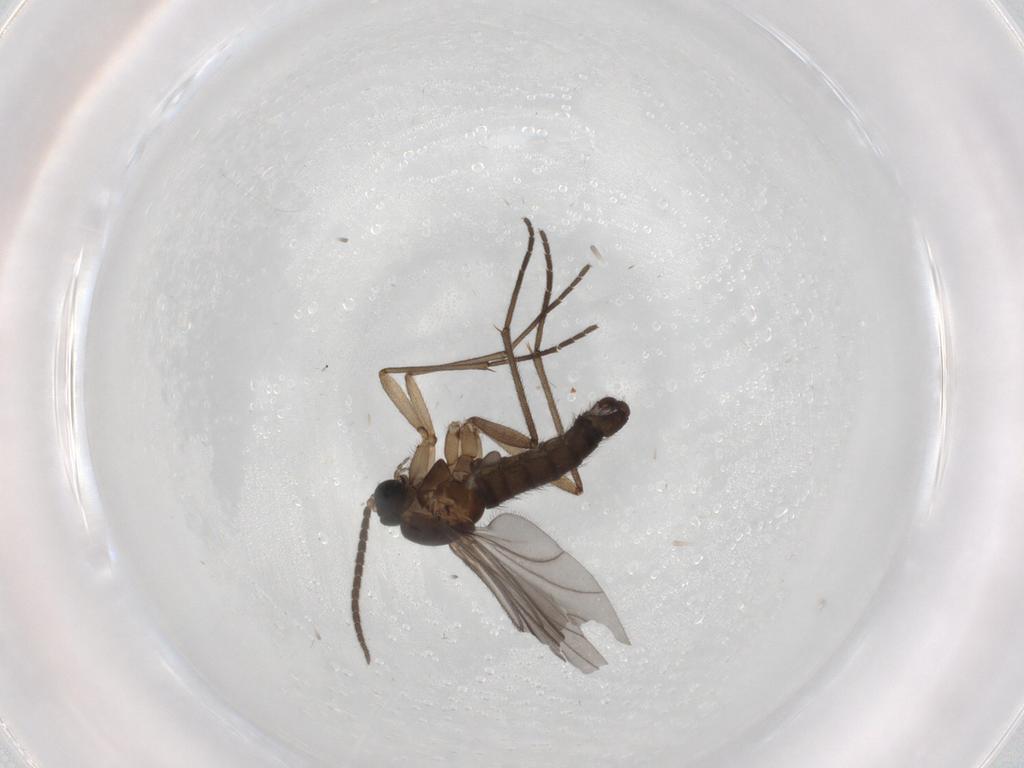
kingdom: Animalia
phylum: Arthropoda
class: Insecta
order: Diptera
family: Sciaridae
